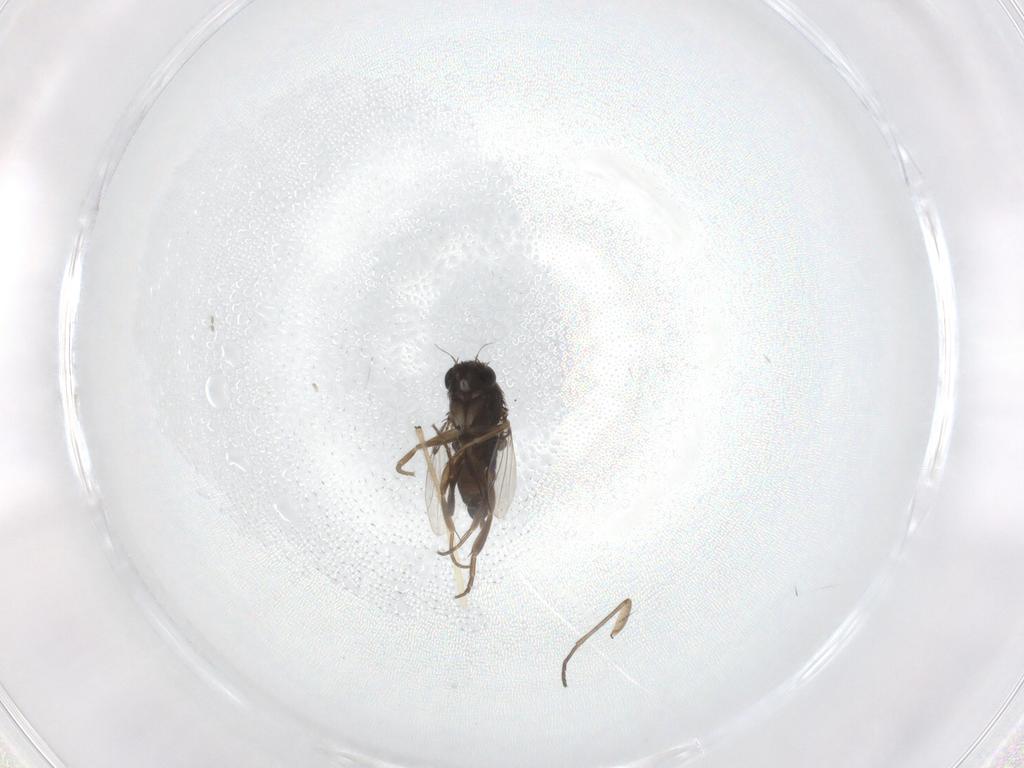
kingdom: Animalia
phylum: Arthropoda
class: Insecta
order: Diptera
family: Phoridae
